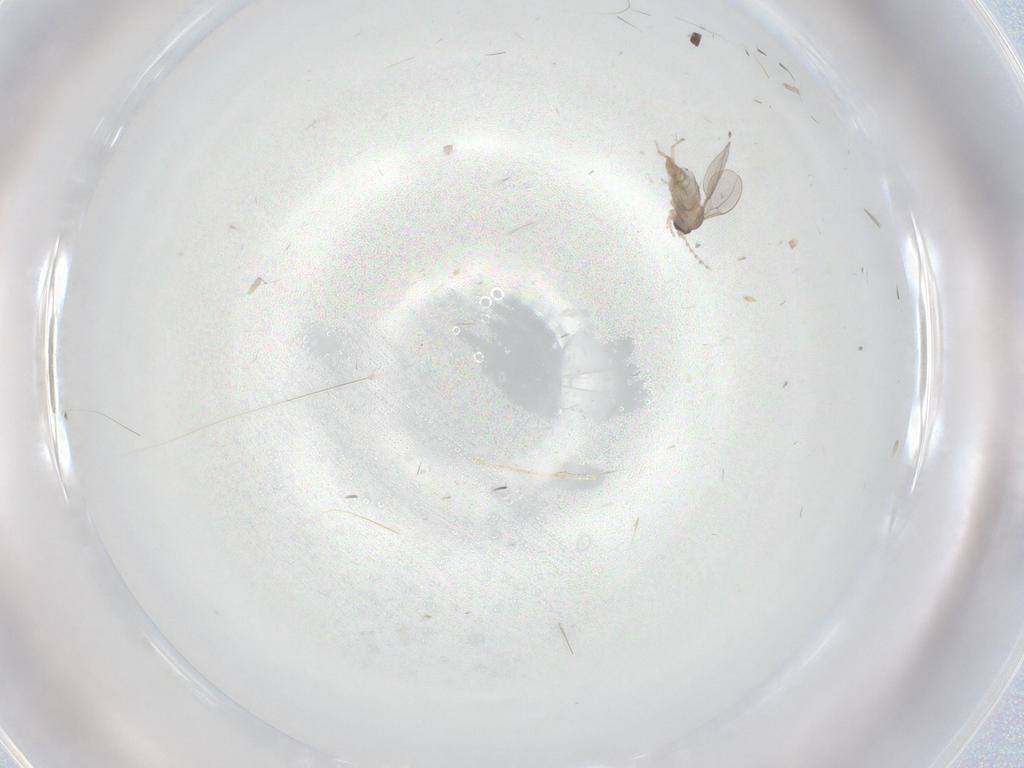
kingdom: Animalia
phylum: Arthropoda
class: Insecta
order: Diptera
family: Cecidomyiidae
